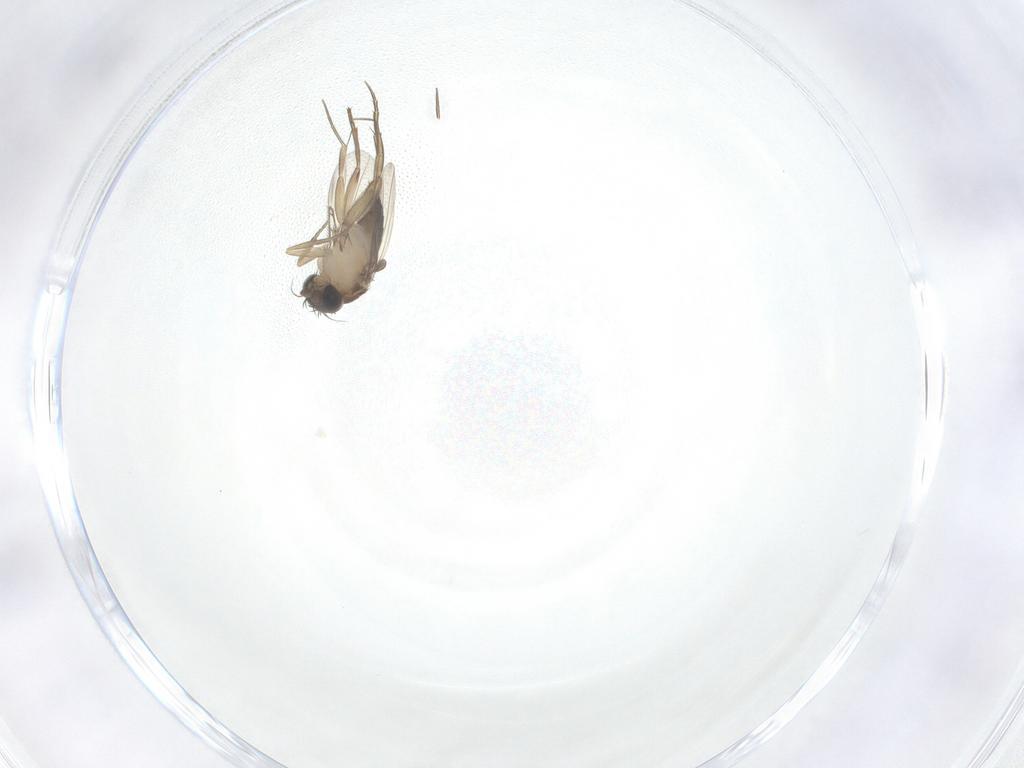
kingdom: Animalia
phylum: Arthropoda
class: Insecta
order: Diptera
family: Phoridae
